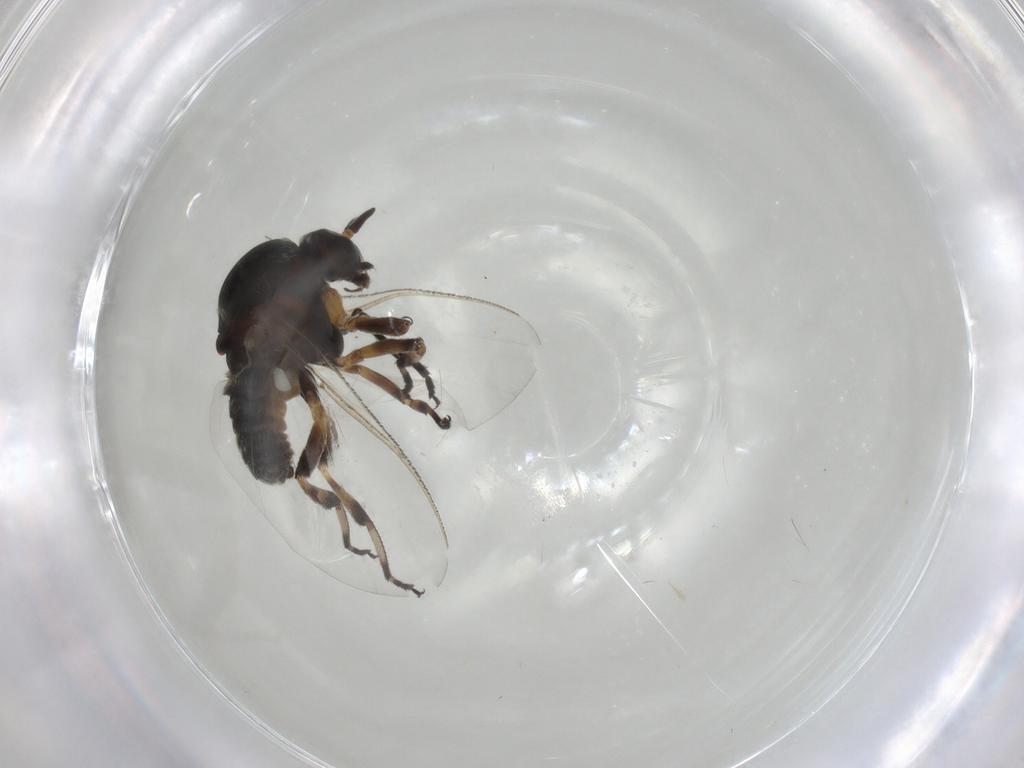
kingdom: Animalia
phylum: Arthropoda
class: Insecta
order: Diptera
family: Sciaridae
